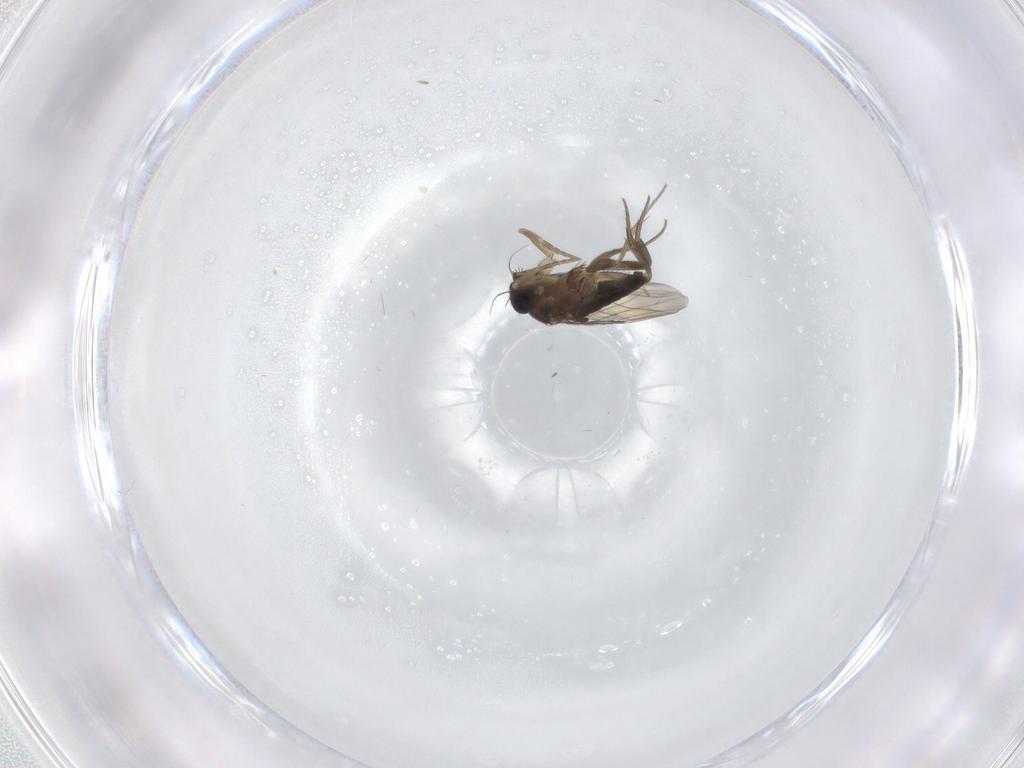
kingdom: Animalia
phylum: Arthropoda
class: Insecta
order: Diptera
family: Phoridae
